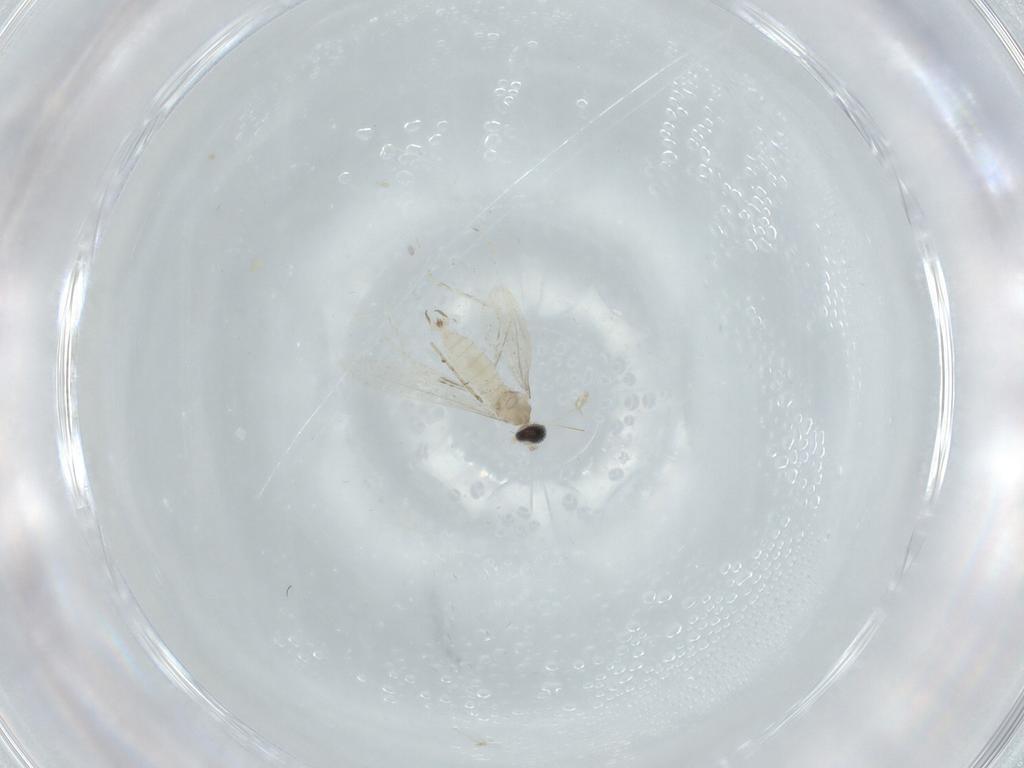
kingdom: Animalia
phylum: Arthropoda
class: Insecta
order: Diptera
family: Cecidomyiidae
